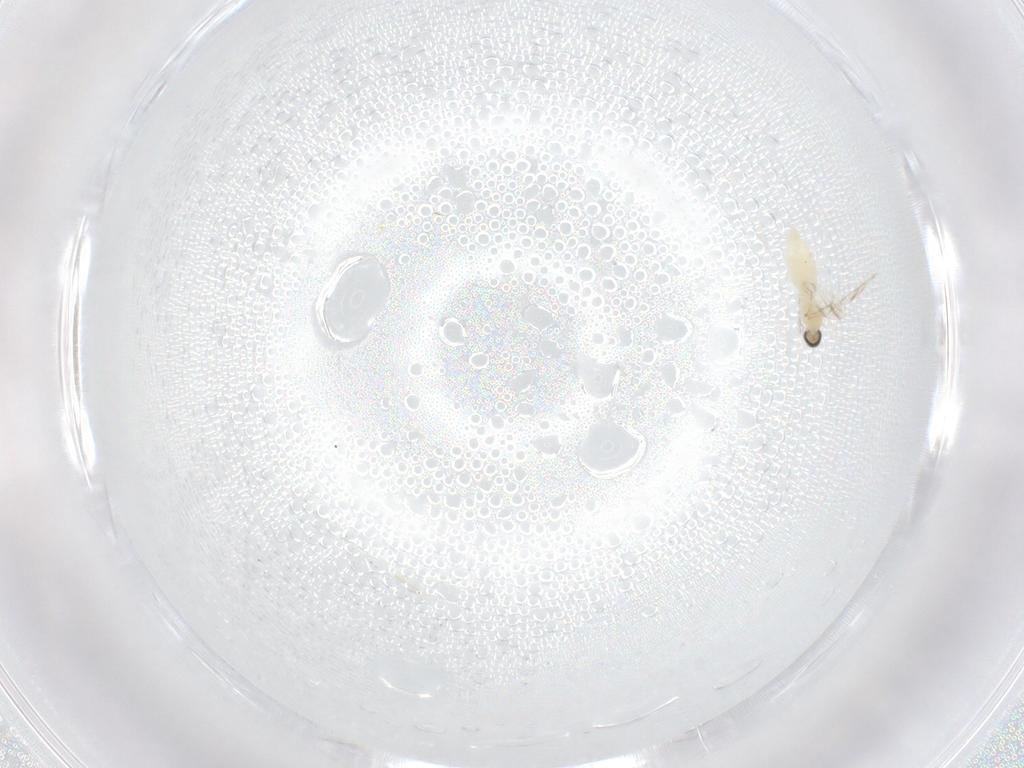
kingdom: Animalia
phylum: Arthropoda
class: Insecta
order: Diptera
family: Cecidomyiidae
